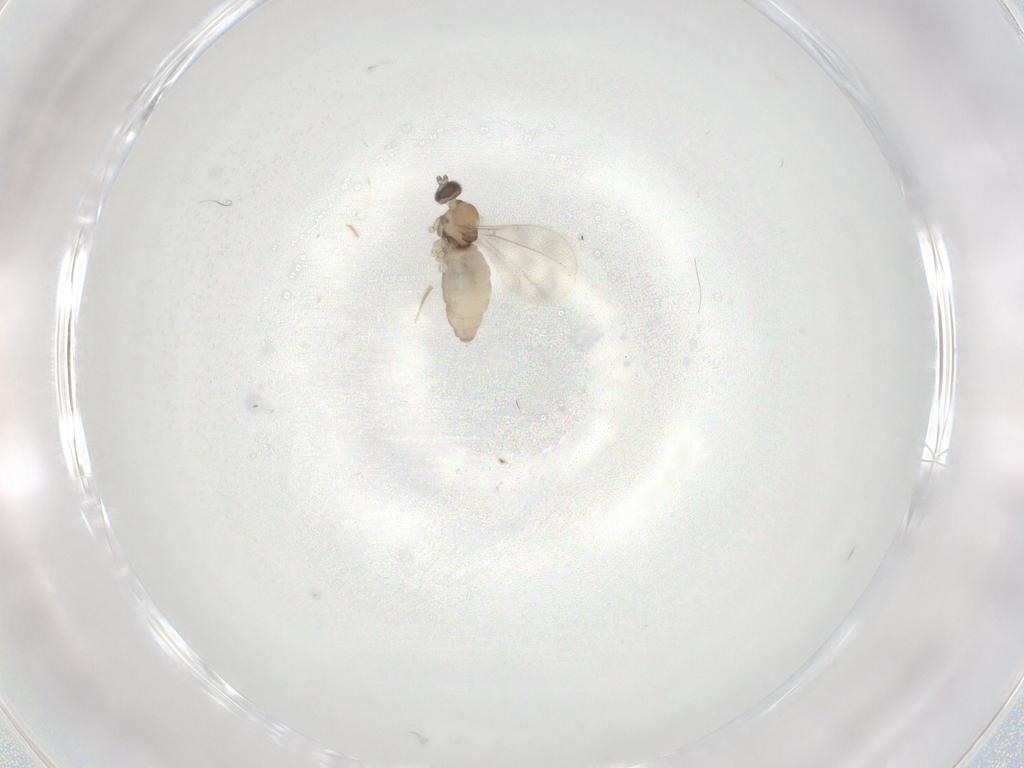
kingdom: Animalia
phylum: Arthropoda
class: Insecta
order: Diptera
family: Cecidomyiidae
